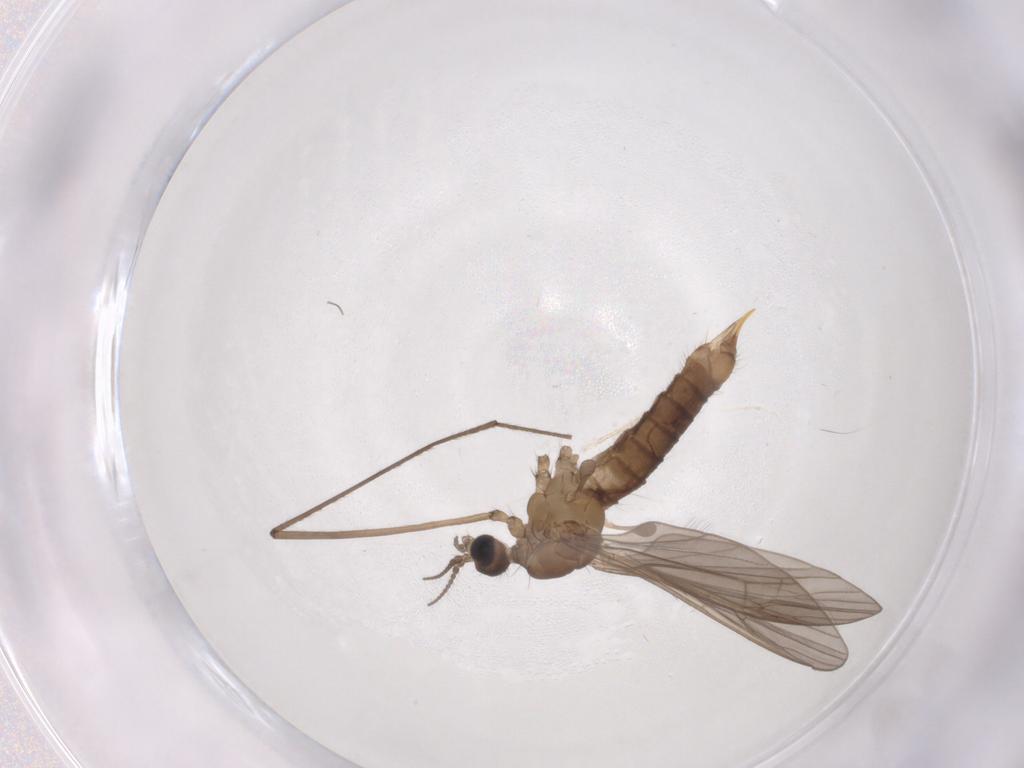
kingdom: Animalia
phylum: Arthropoda
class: Insecta
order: Diptera
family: Limoniidae
